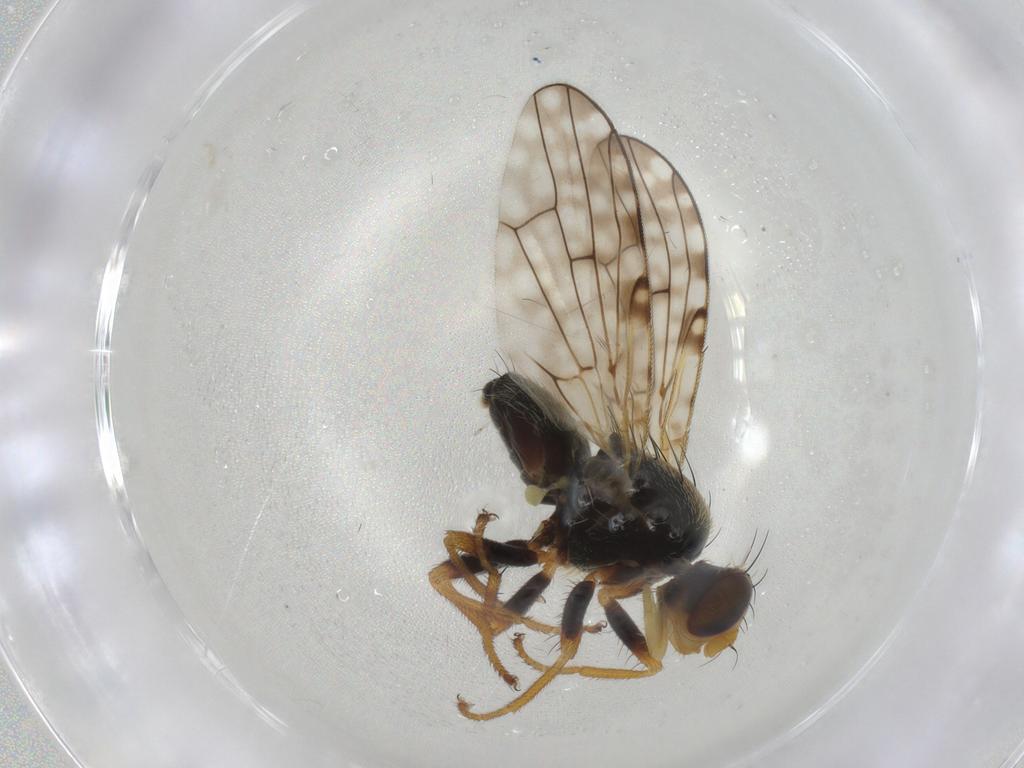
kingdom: Animalia
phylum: Arthropoda
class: Insecta
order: Diptera
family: Tephritidae
